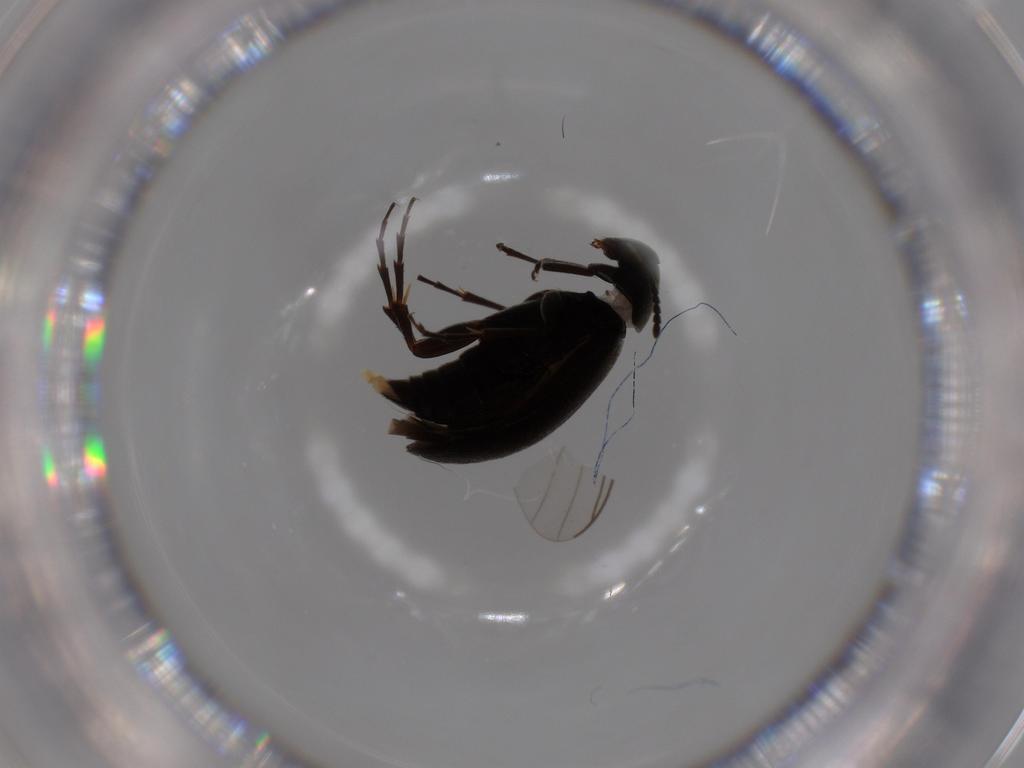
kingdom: Animalia
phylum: Arthropoda
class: Insecta
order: Coleoptera
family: Scraptiidae
